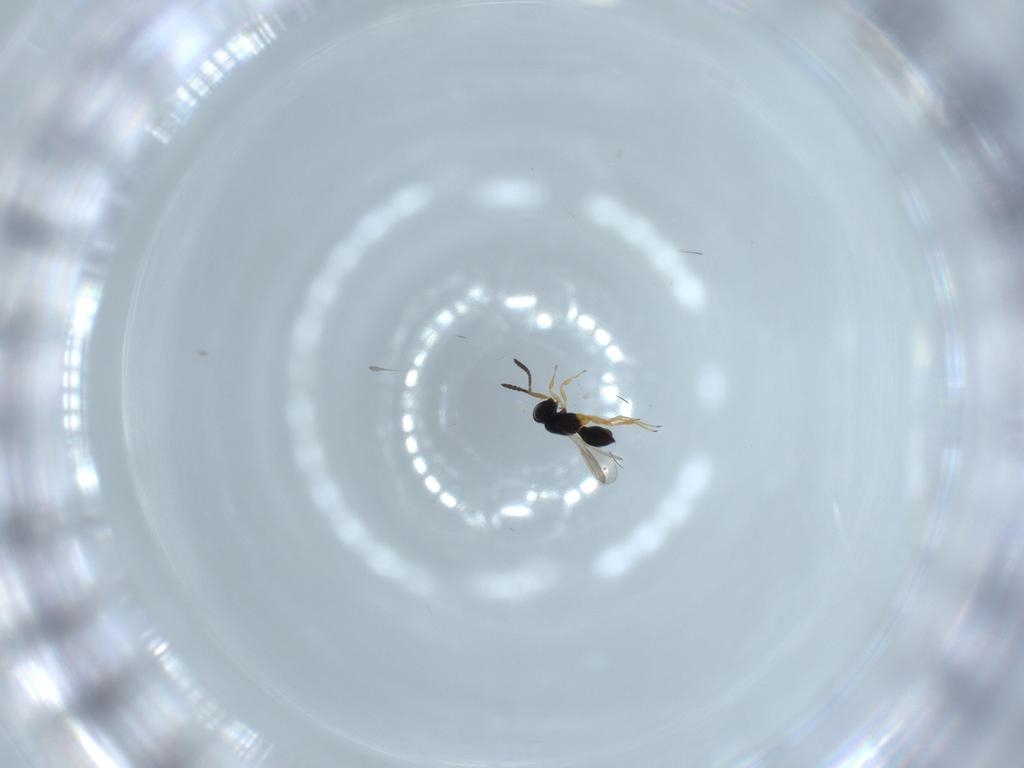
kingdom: Animalia
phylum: Arthropoda
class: Insecta
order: Hymenoptera
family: Scelionidae
